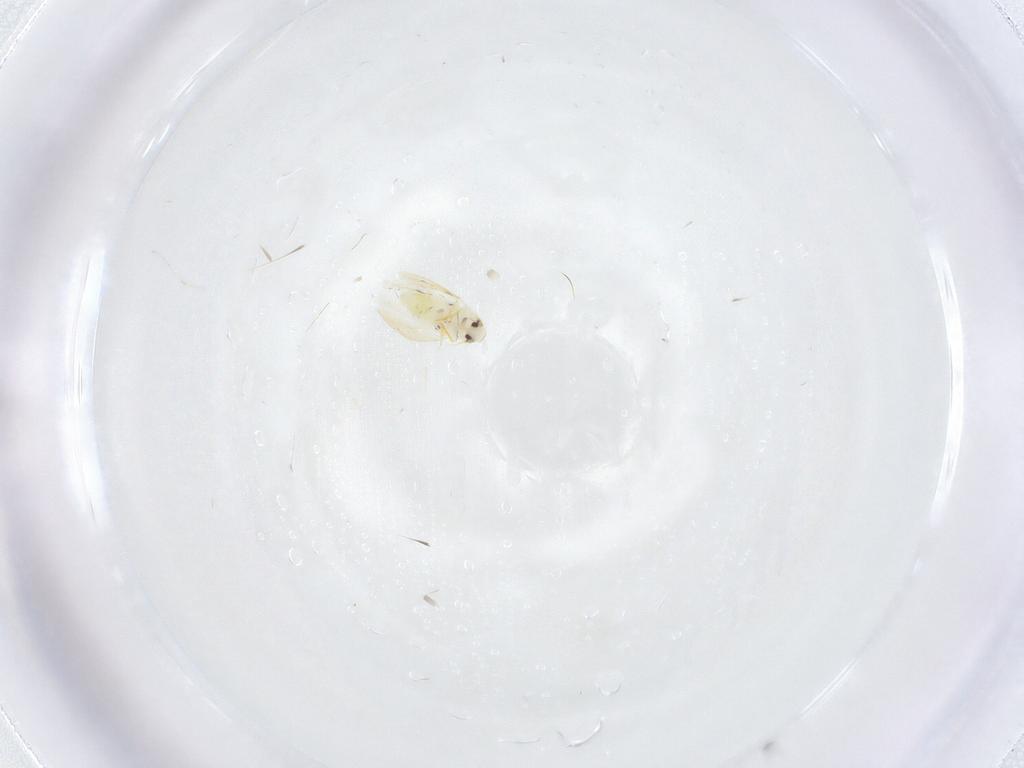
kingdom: Animalia
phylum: Arthropoda
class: Insecta
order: Hemiptera
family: Aleyrodidae
